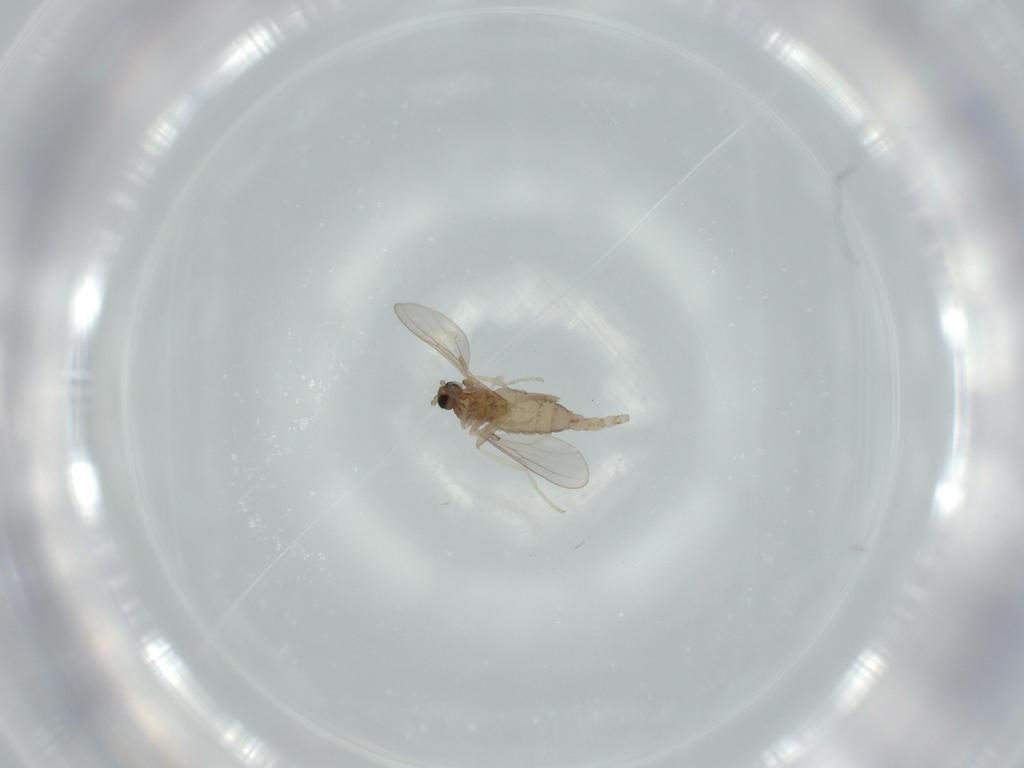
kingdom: Animalia
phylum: Arthropoda
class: Insecta
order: Diptera
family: Cecidomyiidae
